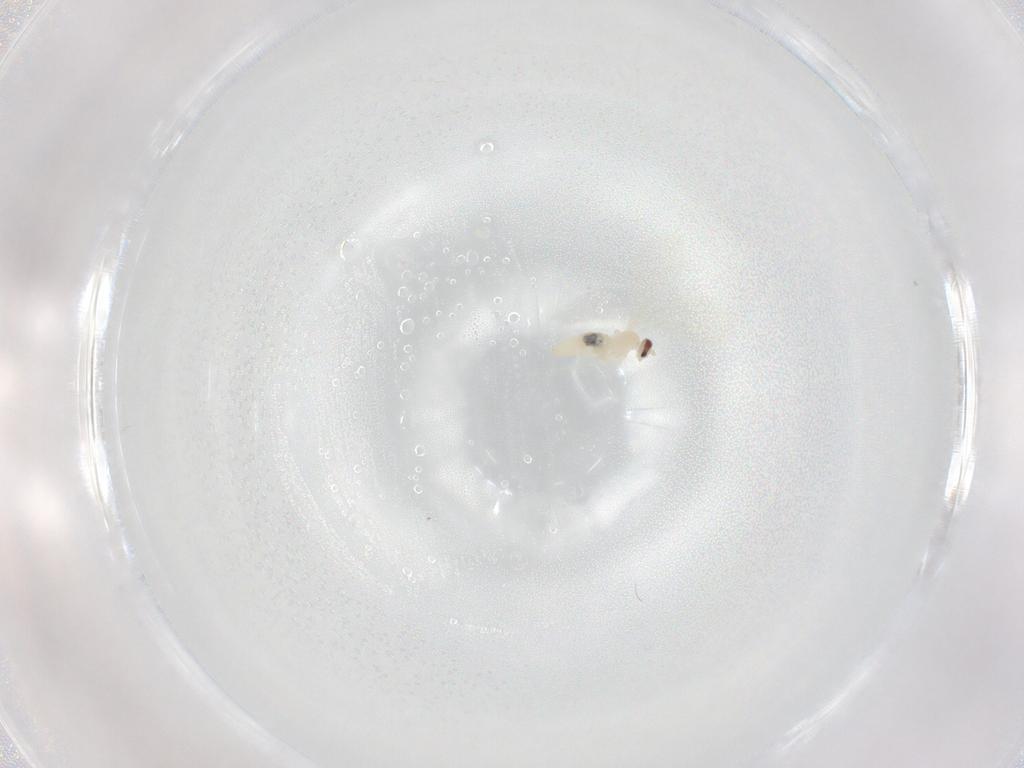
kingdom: Animalia
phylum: Arthropoda
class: Insecta
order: Diptera
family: Cecidomyiidae
